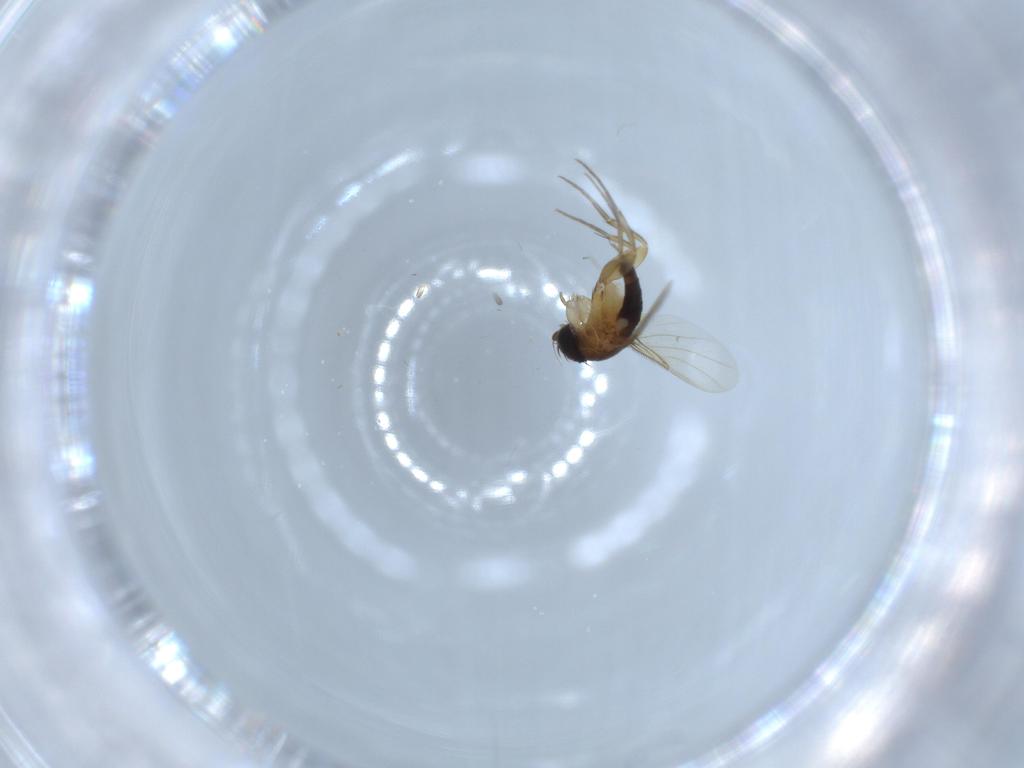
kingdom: Animalia
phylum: Arthropoda
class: Insecta
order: Diptera
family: Phoridae
